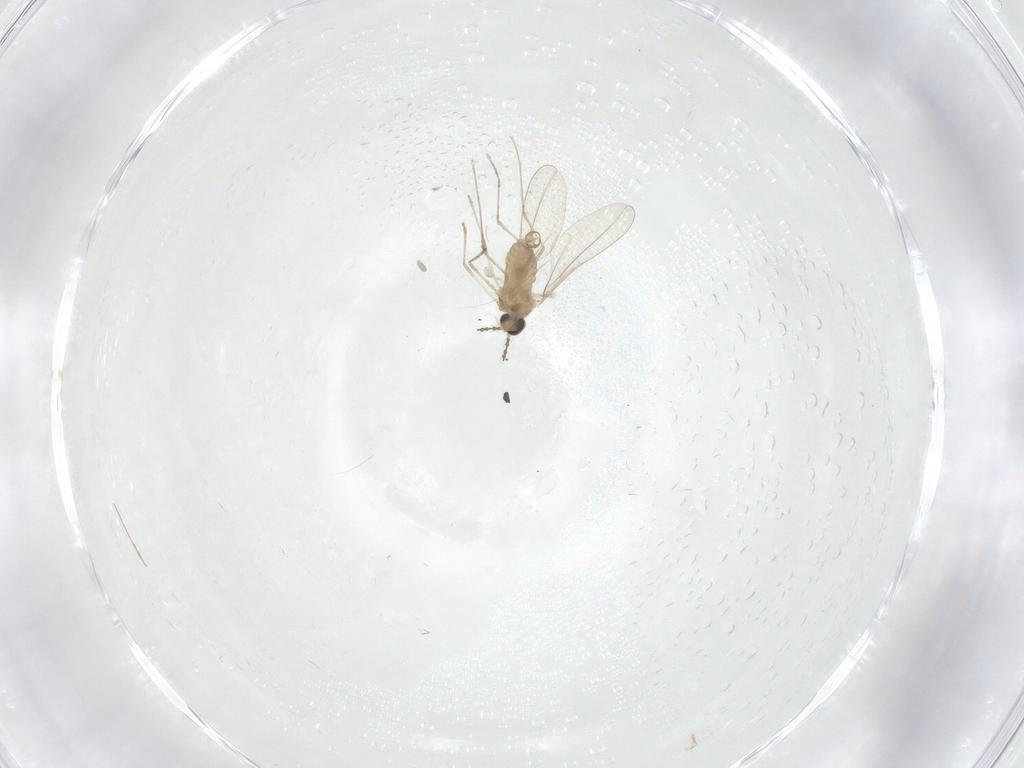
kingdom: Animalia
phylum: Arthropoda
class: Insecta
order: Diptera
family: Cecidomyiidae
